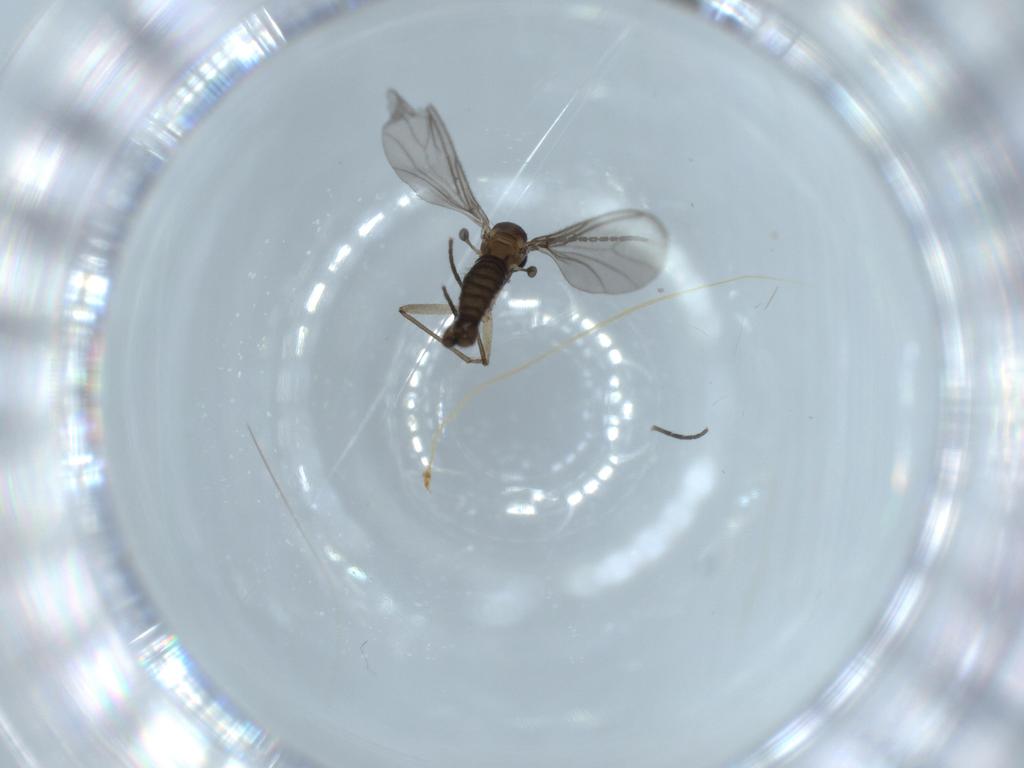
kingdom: Animalia
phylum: Arthropoda
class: Insecta
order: Diptera
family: Sciaridae
